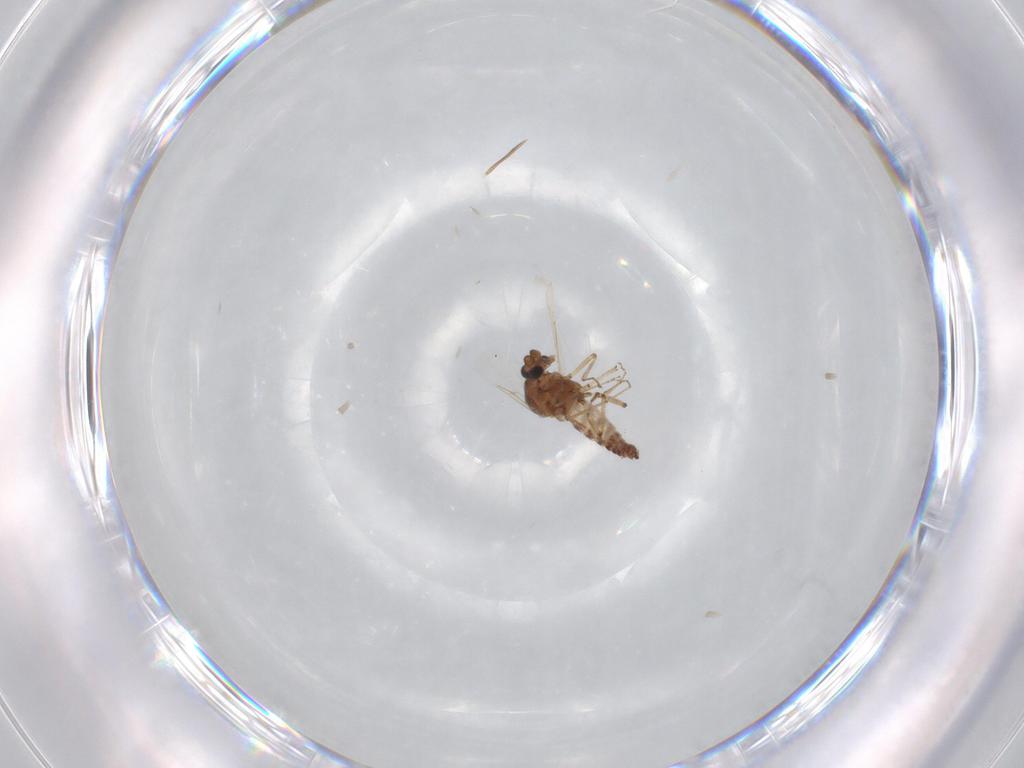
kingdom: Animalia
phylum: Arthropoda
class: Insecta
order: Diptera
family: Ceratopogonidae
